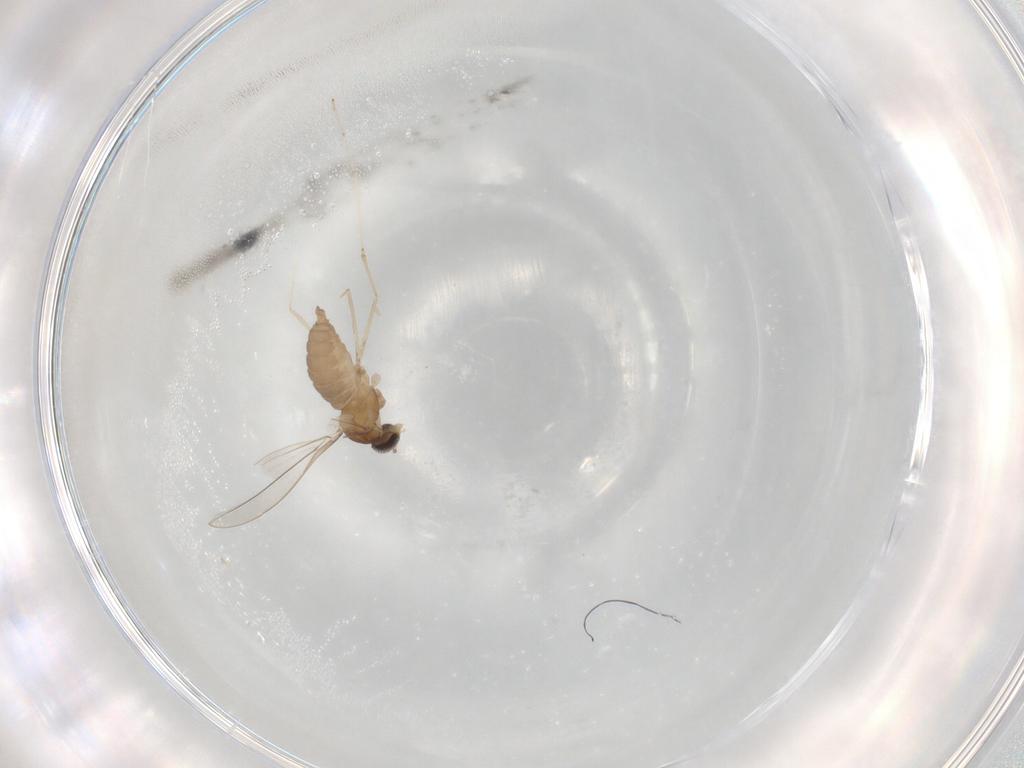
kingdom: Animalia
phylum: Arthropoda
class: Insecta
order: Diptera
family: Cecidomyiidae
